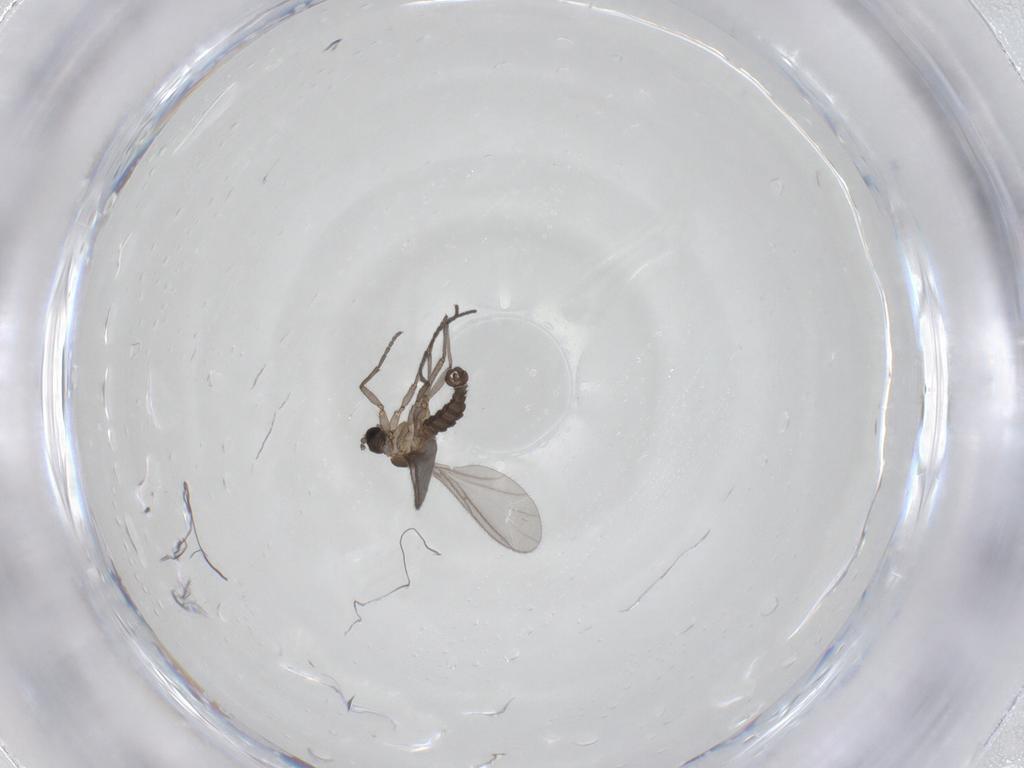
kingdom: Animalia
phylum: Arthropoda
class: Insecta
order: Diptera
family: Sciaridae
